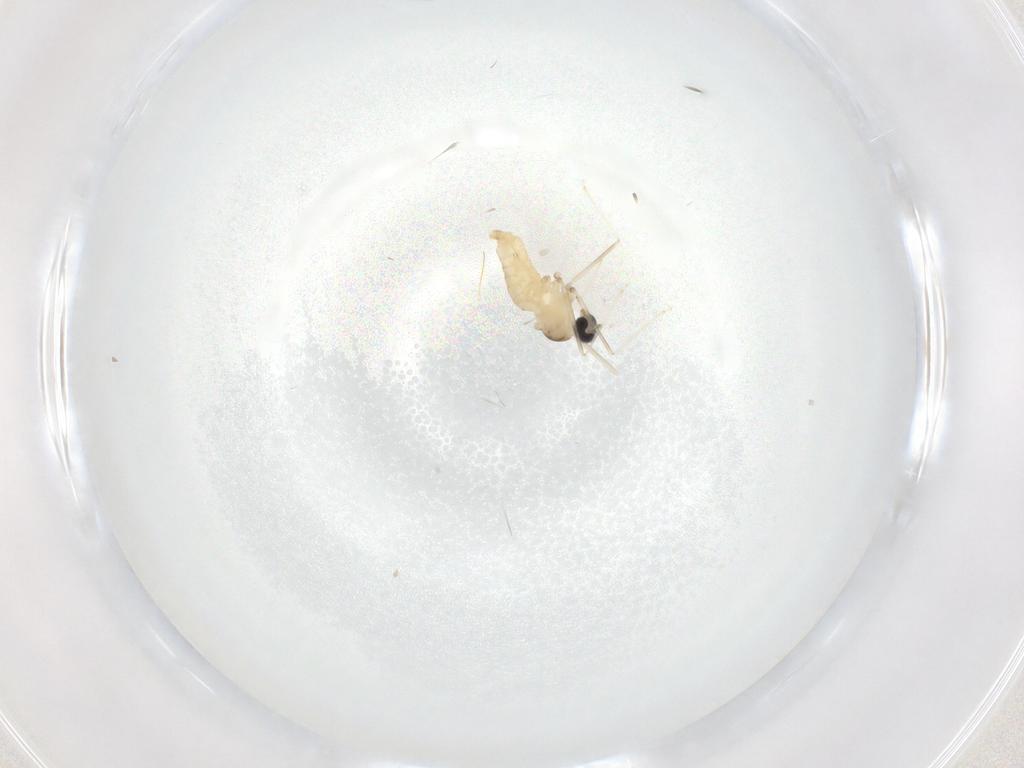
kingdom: Animalia
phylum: Arthropoda
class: Insecta
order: Diptera
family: Cecidomyiidae
